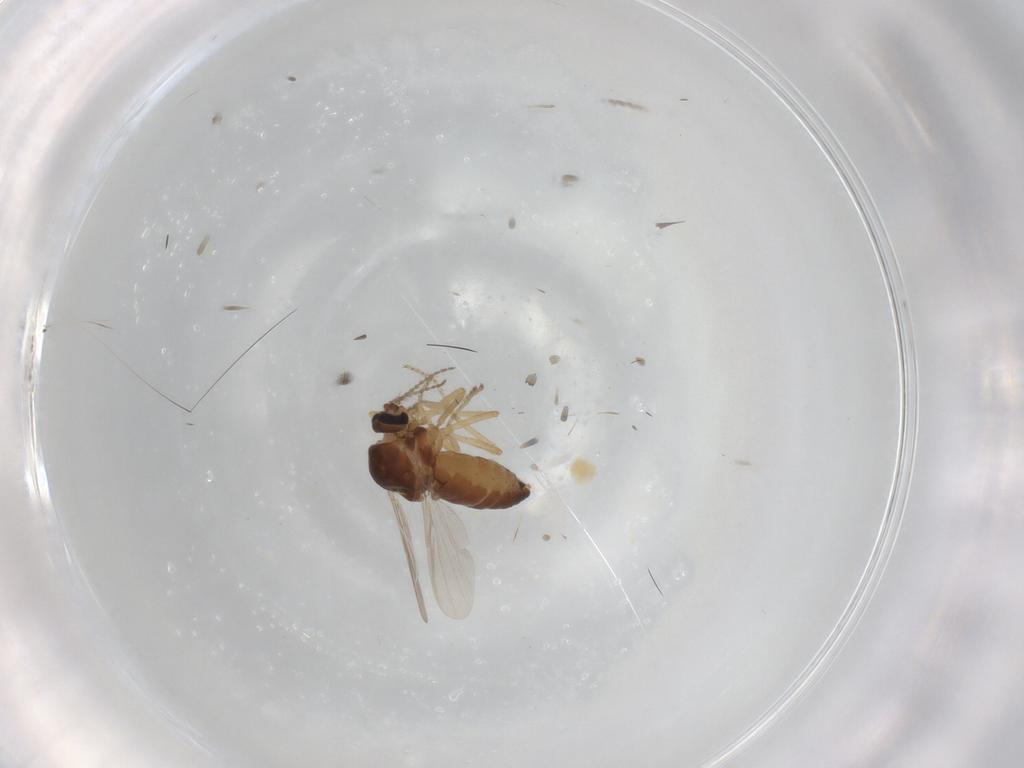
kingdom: Animalia
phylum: Arthropoda
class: Insecta
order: Diptera
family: Ceratopogonidae
